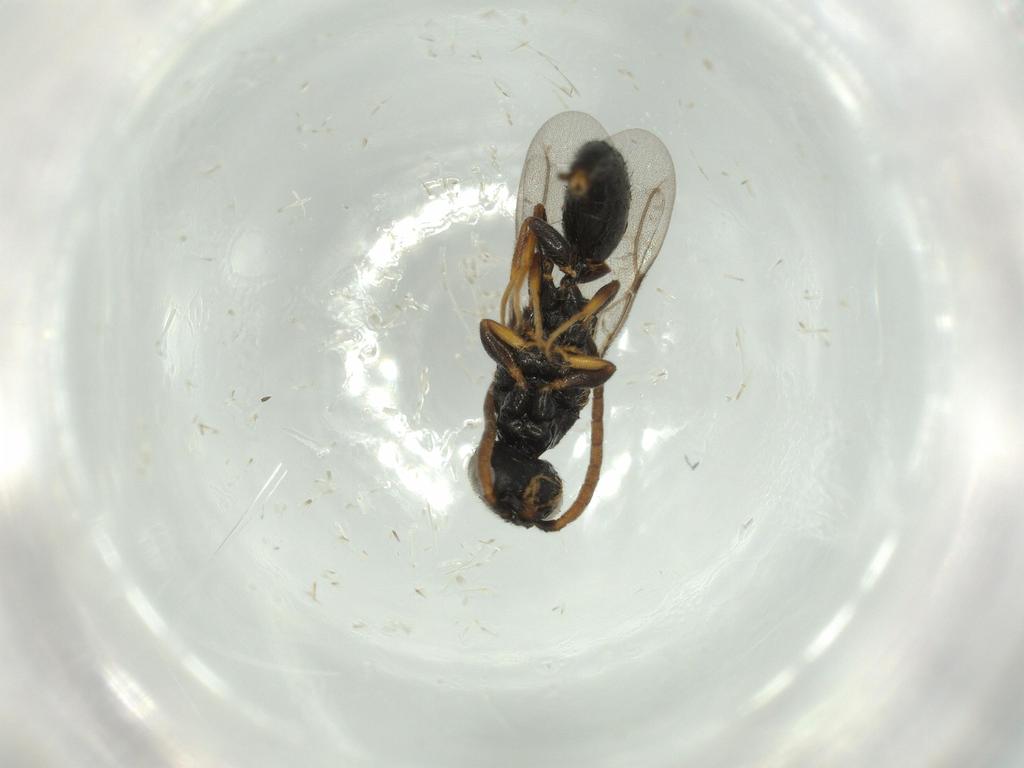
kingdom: Animalia
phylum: Arthropoda
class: Insecta
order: Hymenoptera
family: Bethylidae
